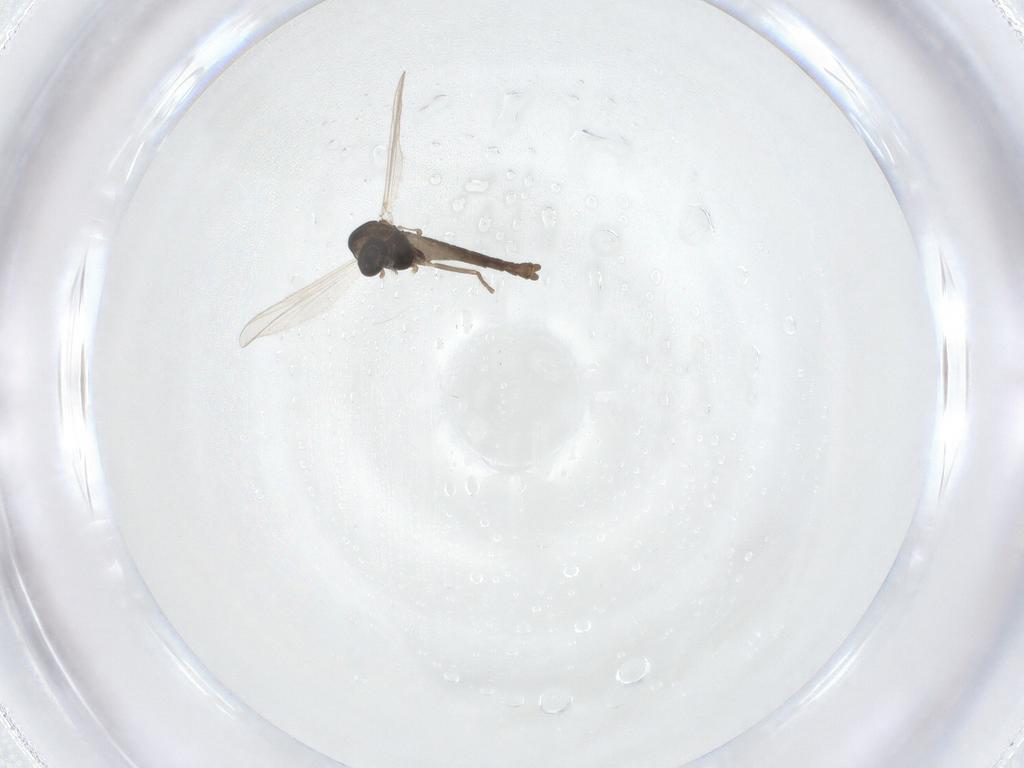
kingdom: Animalia
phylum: Arthropoda
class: Insecta
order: Diptera
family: Chironomidae
